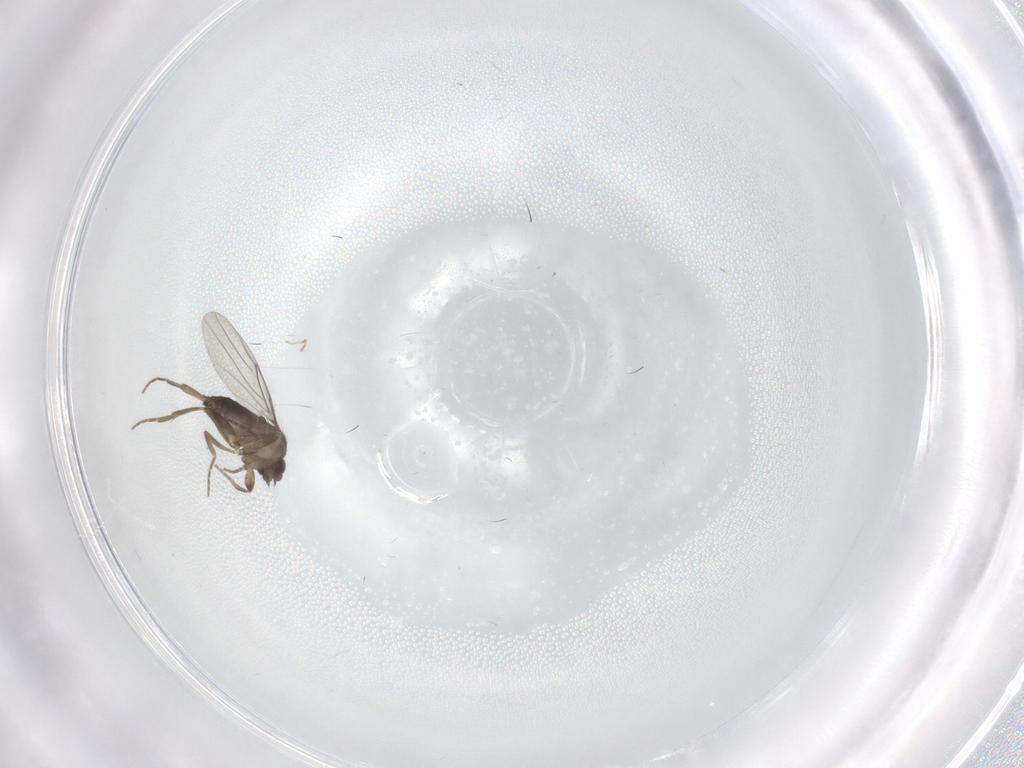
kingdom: Animalia
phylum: Arthropoda
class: Insecta
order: Diptera
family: Phoridae
